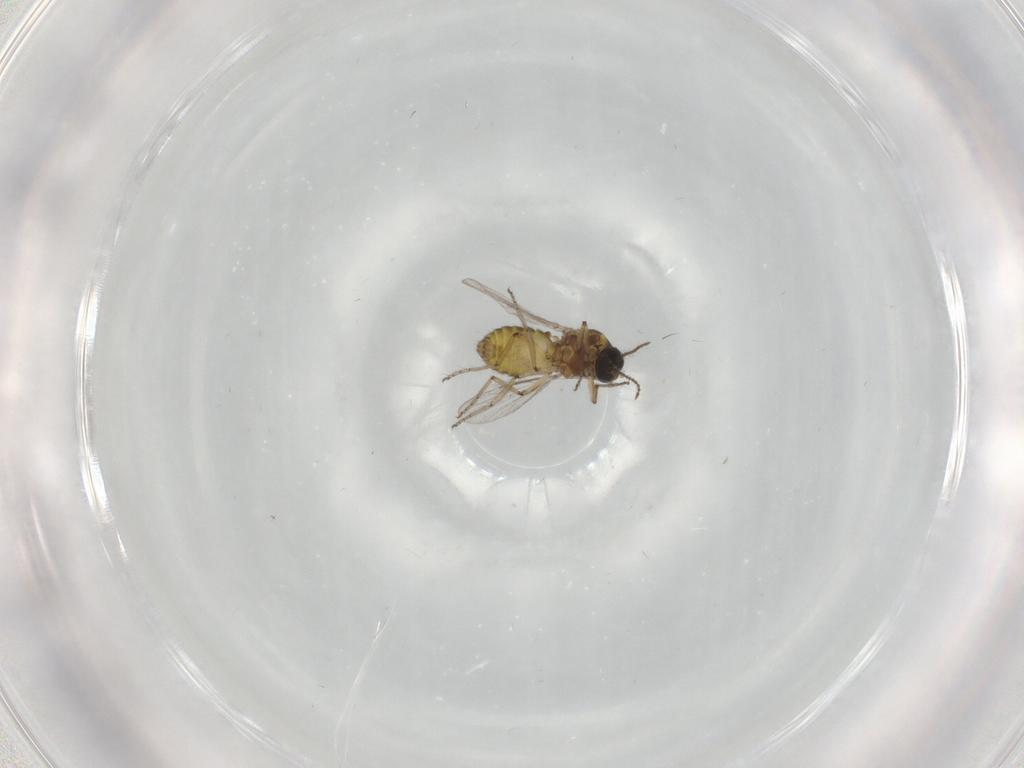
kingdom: Animalia
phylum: Arthropoda
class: Insecta
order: Diptera
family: Ceratopogonidae
